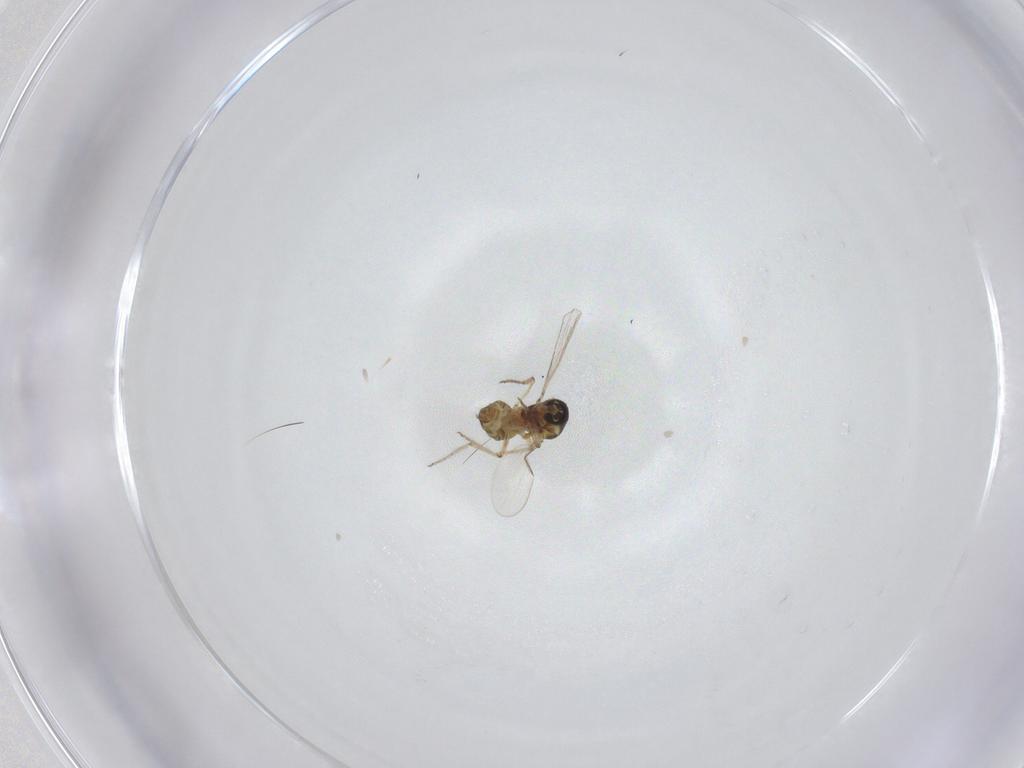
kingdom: Animalia
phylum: Arthropoda
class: Insecta
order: Diptera
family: Ceratopogonidae
